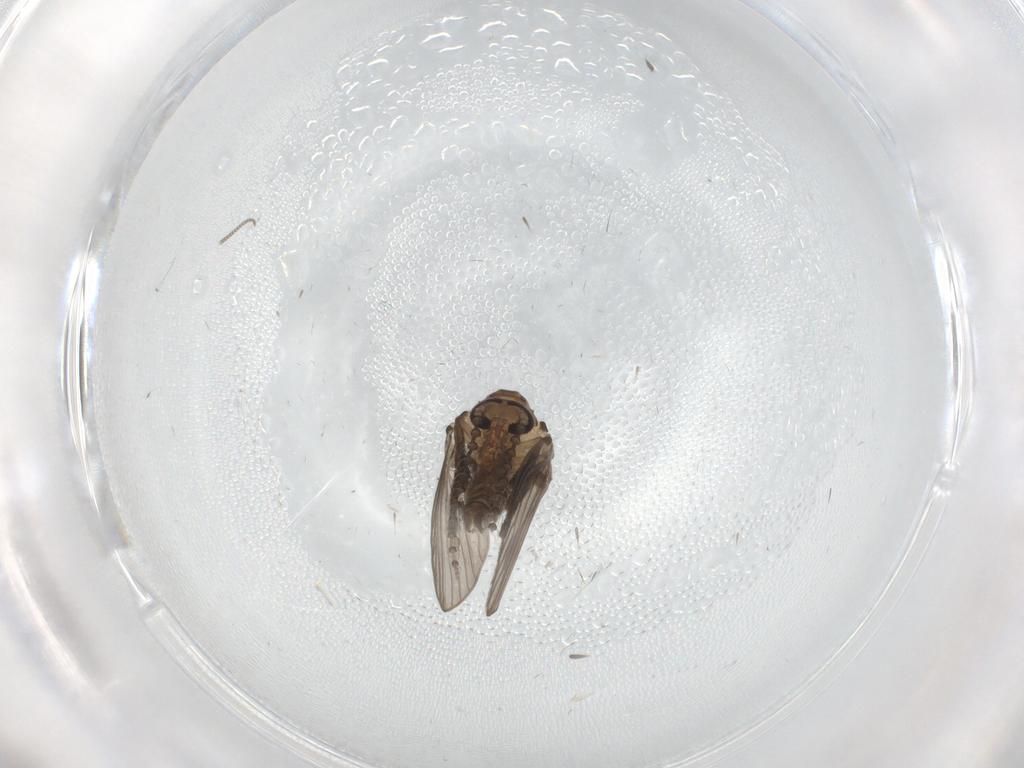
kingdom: Animalia
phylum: Arthropoda
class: Insecta
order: Diptera
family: Psychodidae
